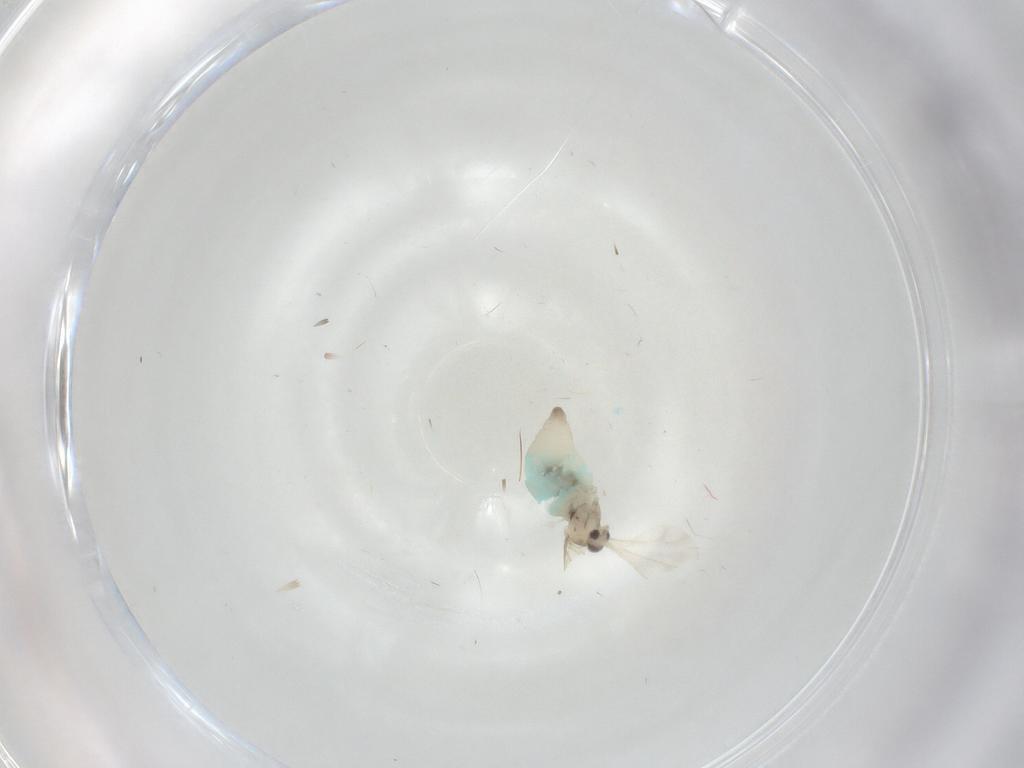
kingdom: Animalia
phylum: Arthropoda
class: Insecta
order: Diptera
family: Cecidomyiidae
